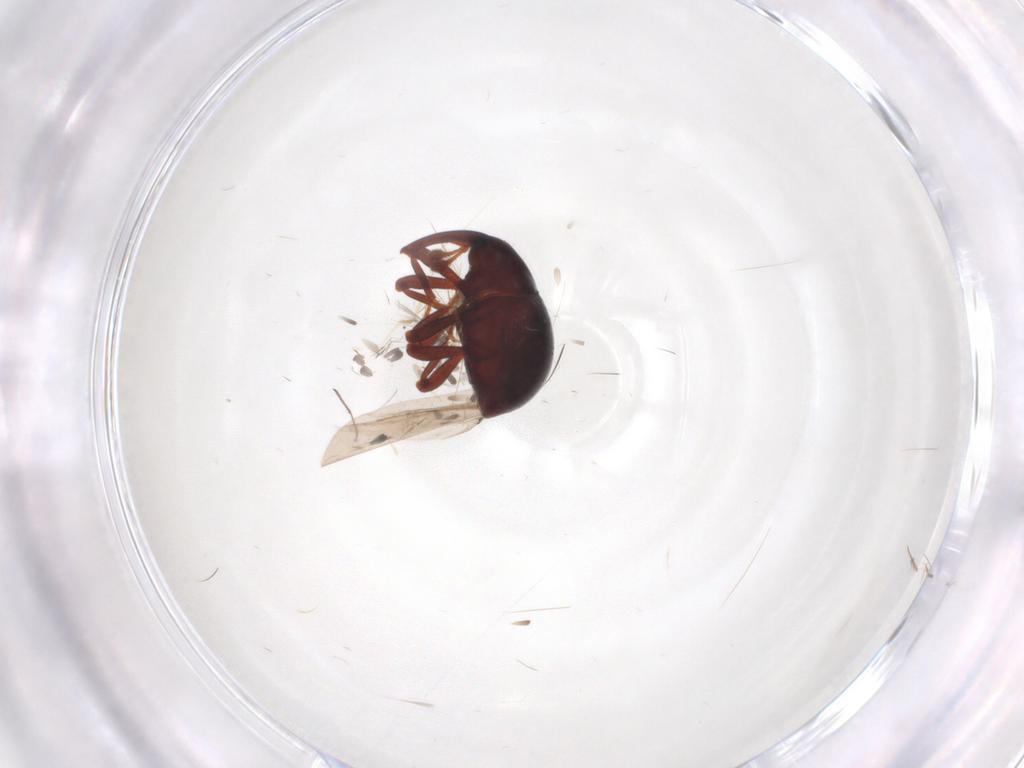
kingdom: Animalia
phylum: Arthropoda
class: Insecta
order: Coleoptera
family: Curculionidae
